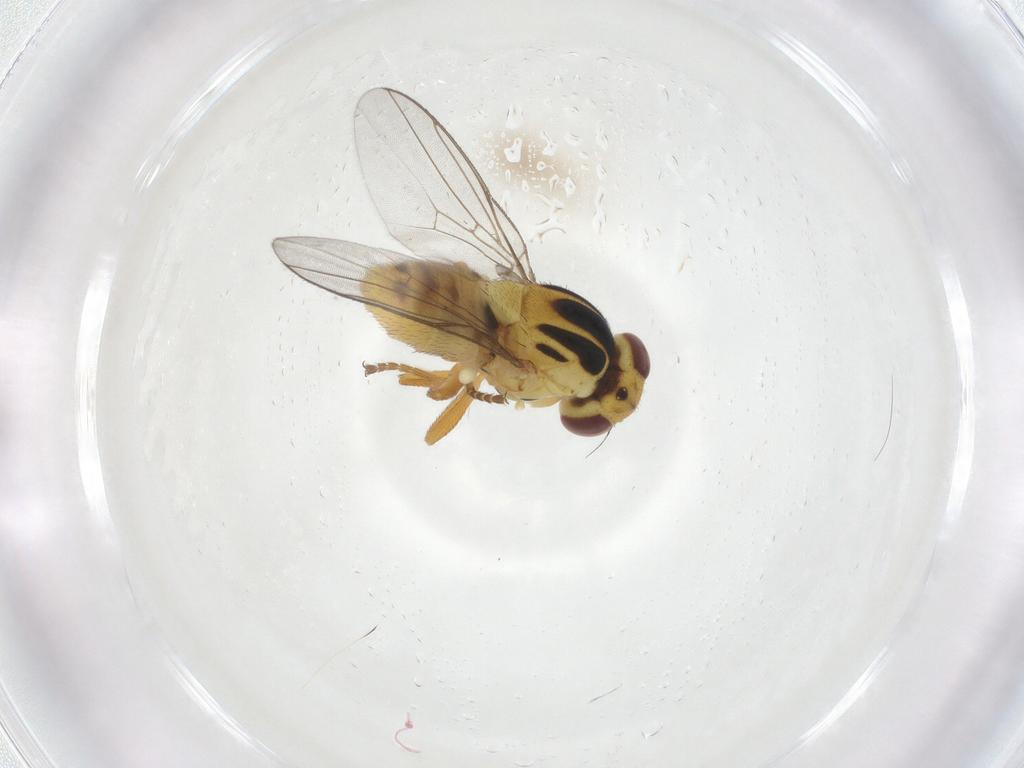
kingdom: Animalia
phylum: Arthropoda
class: Insecta
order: Diptera
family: Chloropidae
